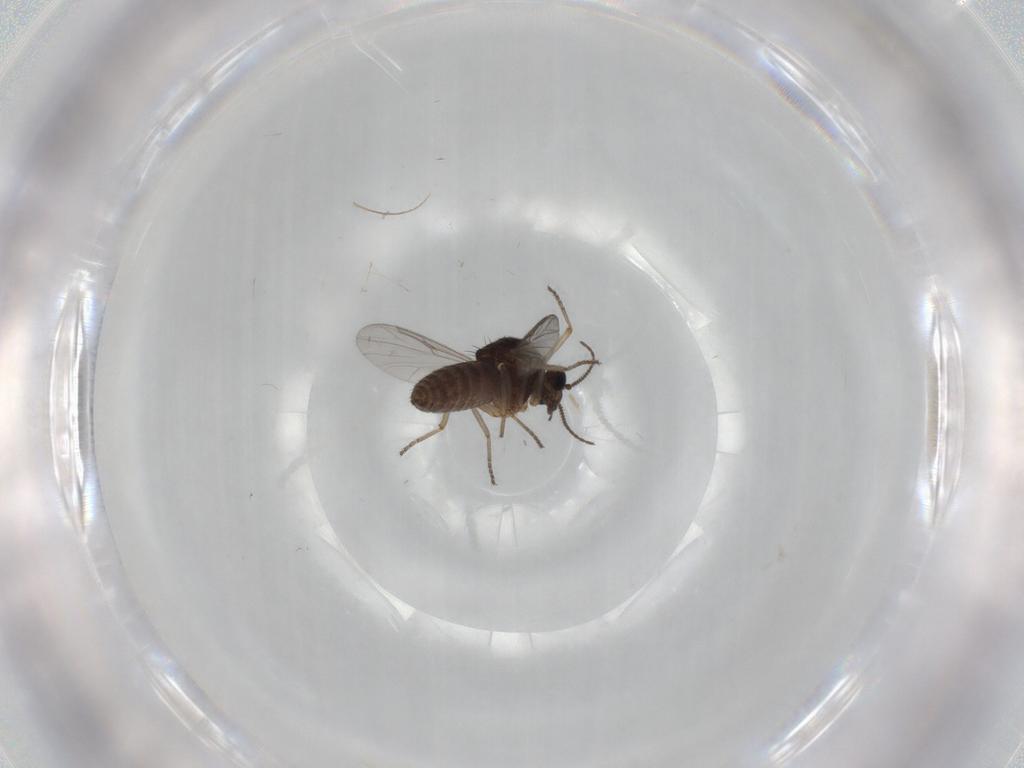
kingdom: Animalia
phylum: Arthropoda
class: Insecta
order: Diptera
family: Ceratopogonidae
